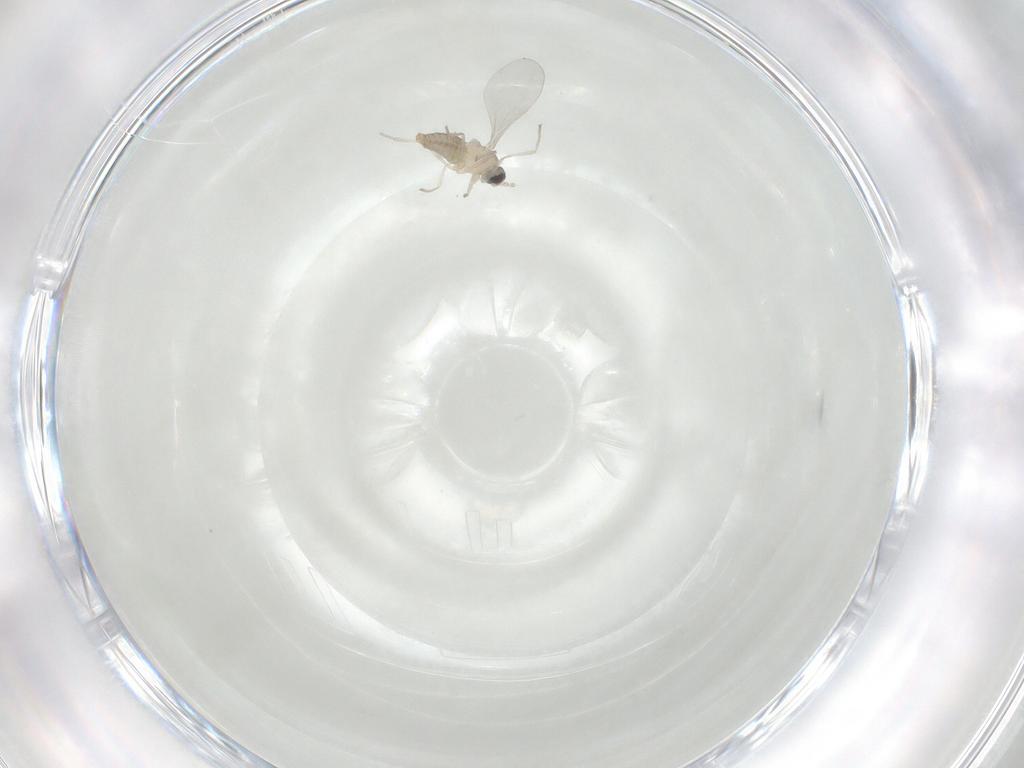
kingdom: Animalia
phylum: Arthropoda
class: Insecta
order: Diptera
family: Cecidomyiidae
